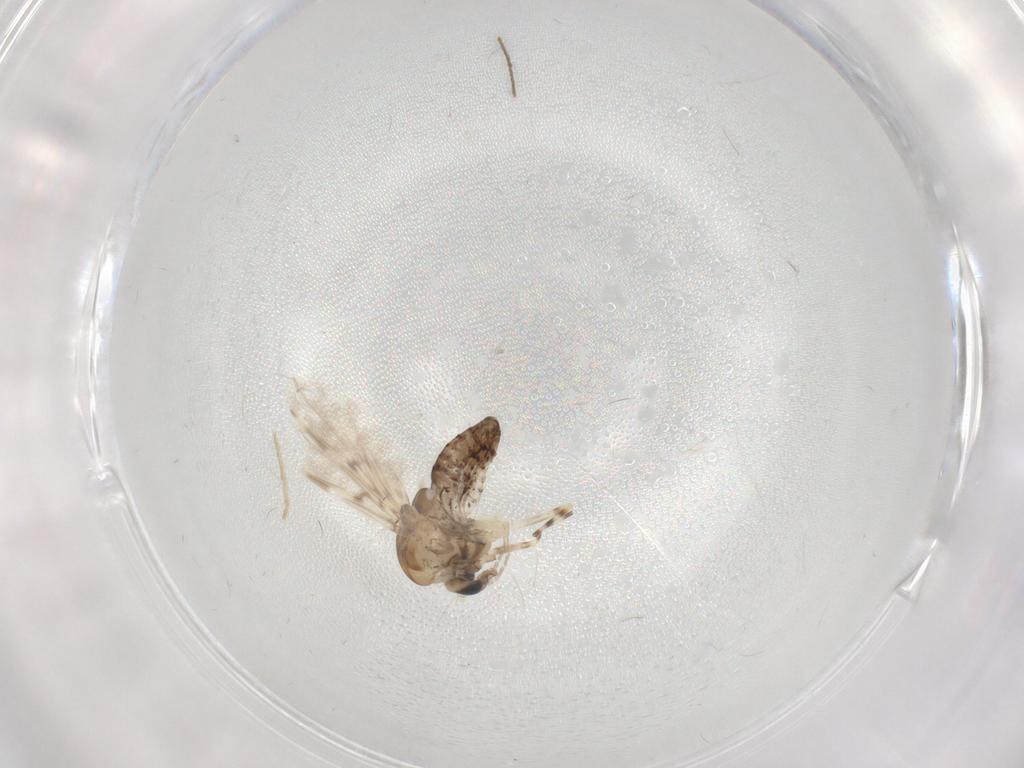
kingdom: Animalia
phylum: Arthropoda
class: Insecta
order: Diptera
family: Chironomidae
